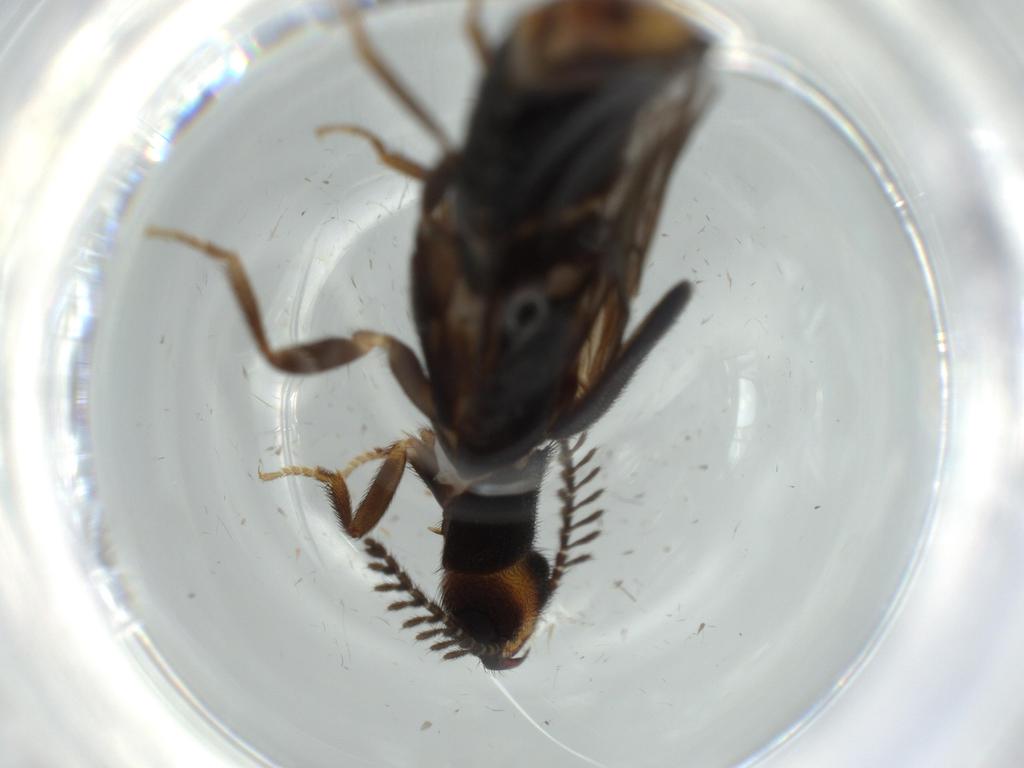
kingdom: Animalia
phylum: Arthropoda
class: Insecta
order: Coleoptera
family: Coccinellidae
